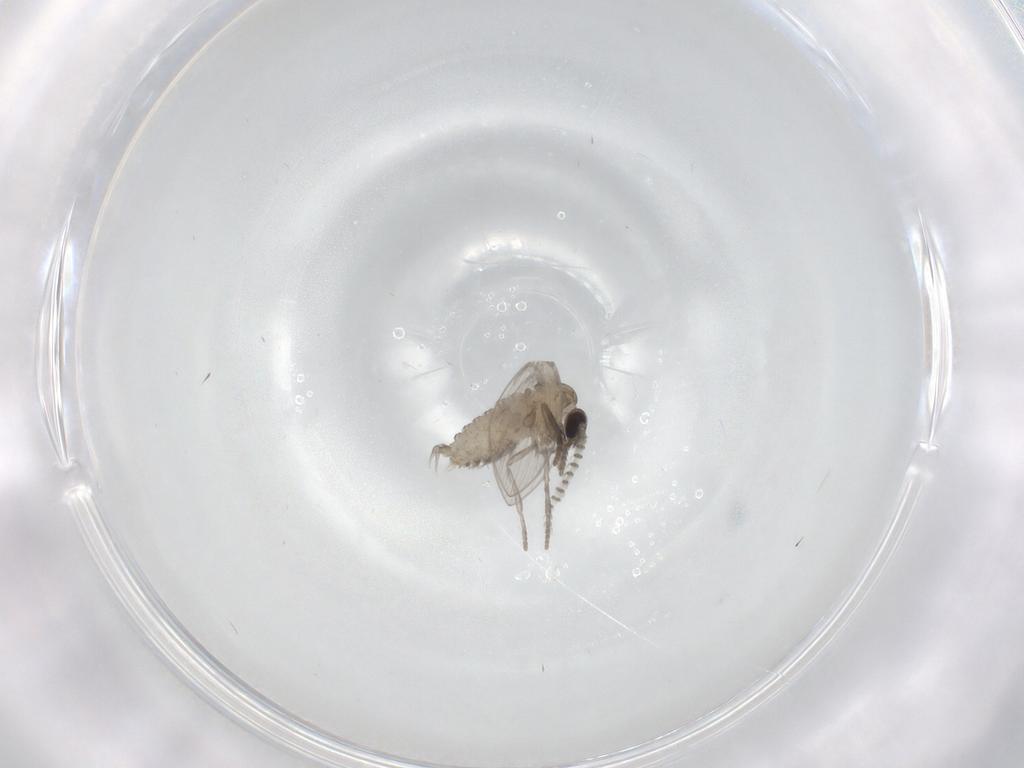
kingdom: Animalia
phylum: Arthropoda
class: Insecta
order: Diptera
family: Psychodidae
